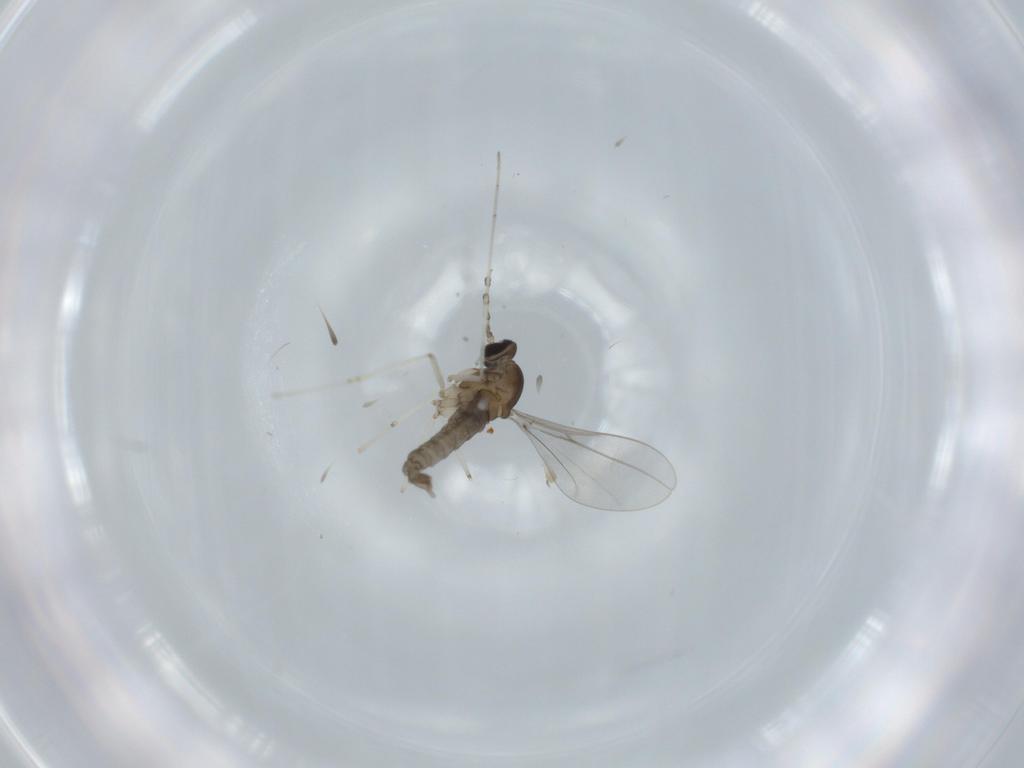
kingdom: Animalia
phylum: Arthropoda
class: Insecta
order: Diptera
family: Cecidomyiidae
